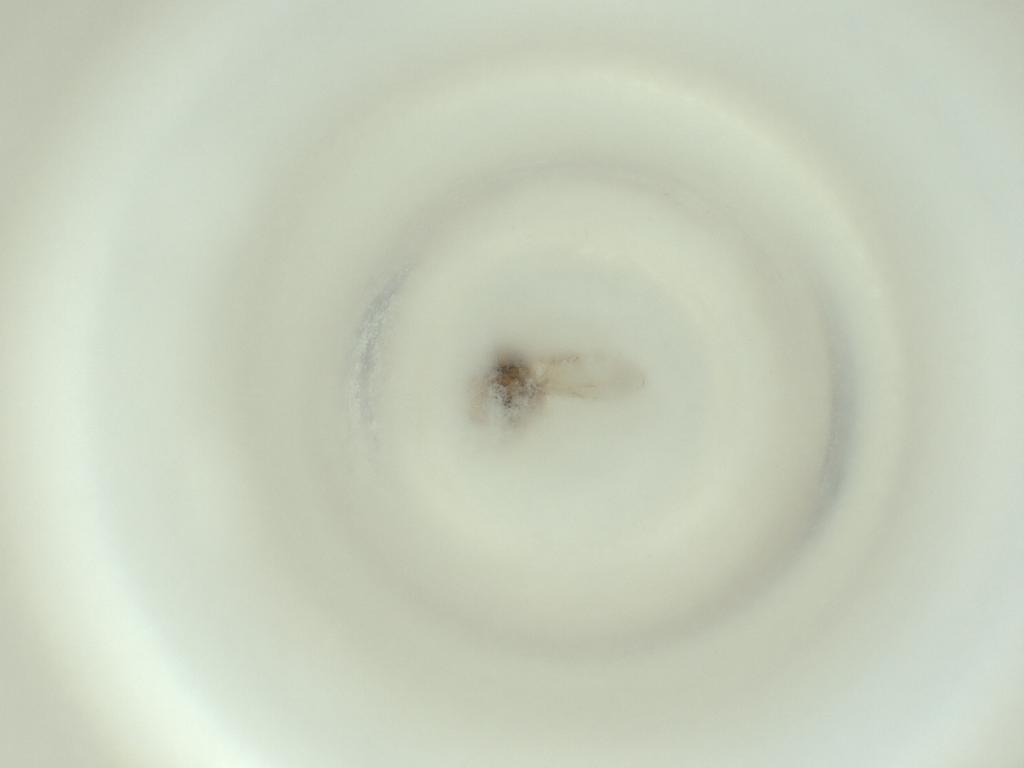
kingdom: Animalia
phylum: Arthropoda
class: Insecta
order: Diptera
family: Cecidomyiidae
